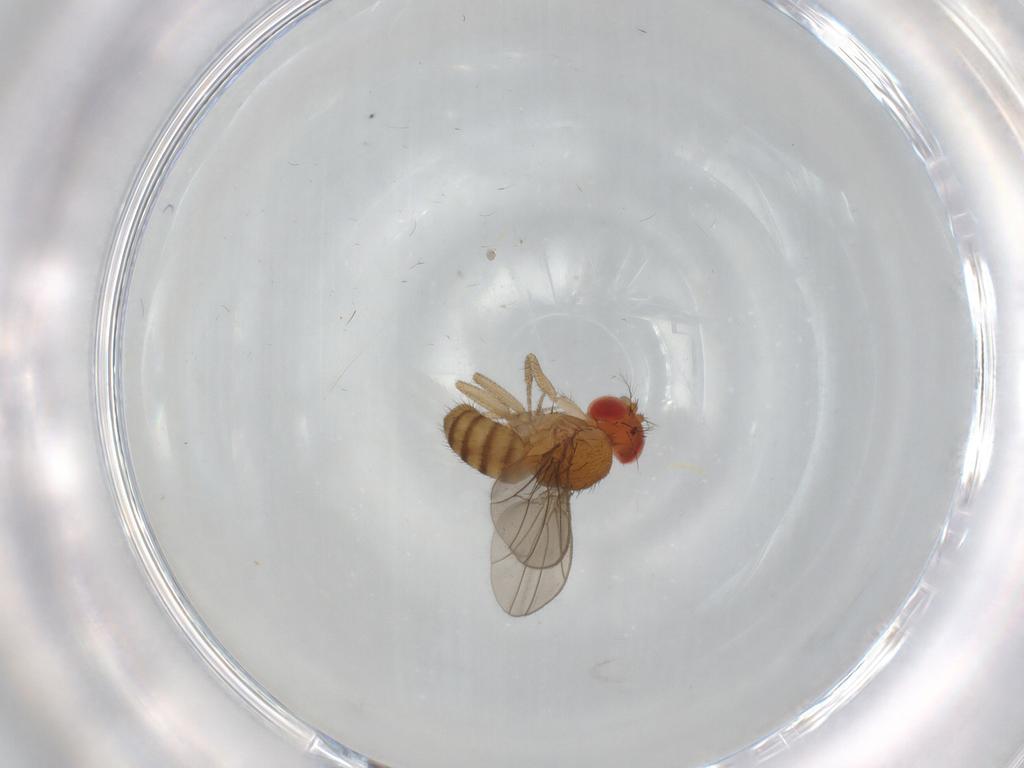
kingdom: Animalia
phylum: Arthropoda
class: Insecta
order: Diptera
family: Drosophilidae
